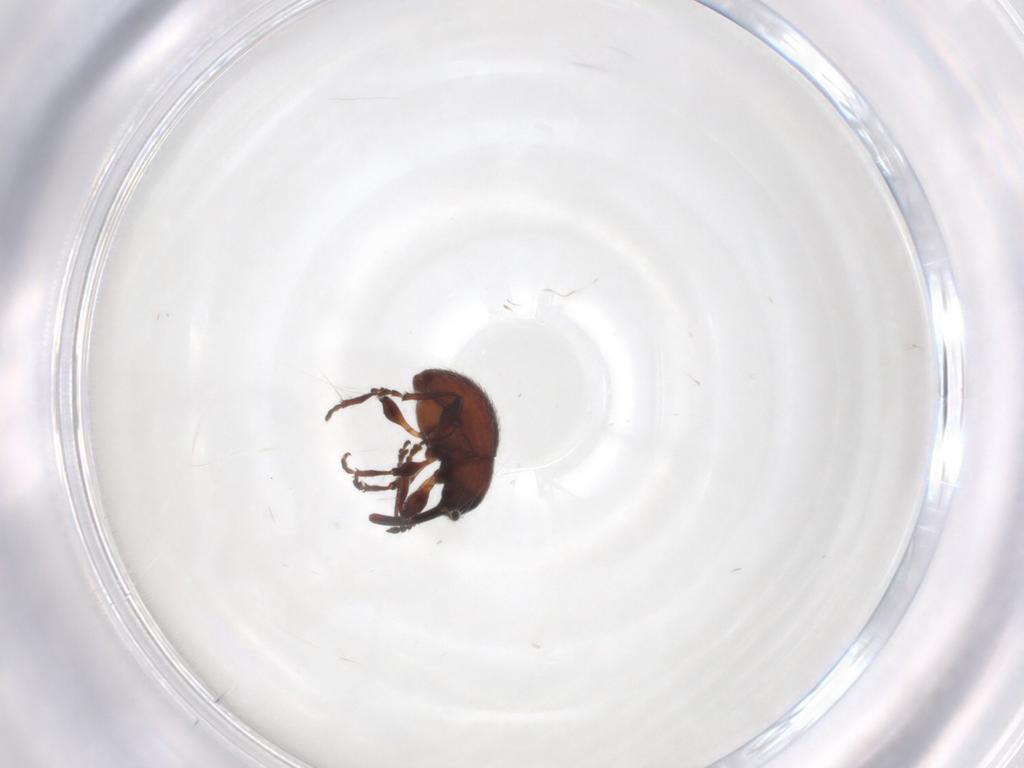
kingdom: Animalia
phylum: Arthropoda
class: Insecta
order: Coleoptera
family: Brentidae
